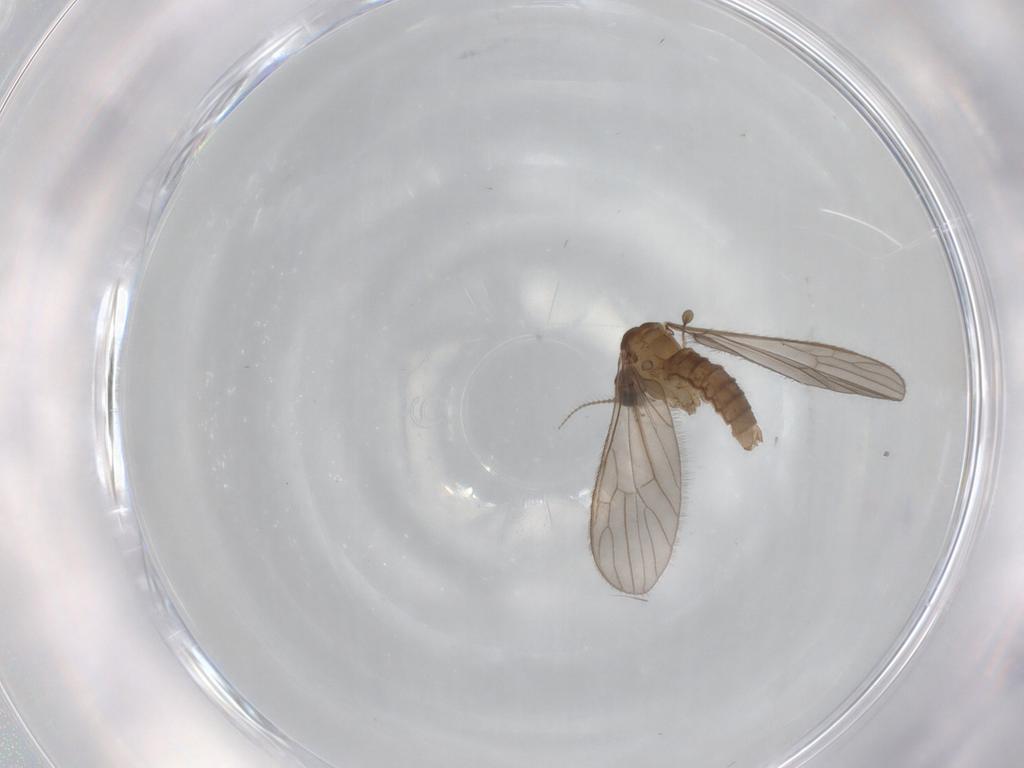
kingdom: Animalia
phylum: Arthropoda
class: Insecta
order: Diptera
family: Limoniidae
